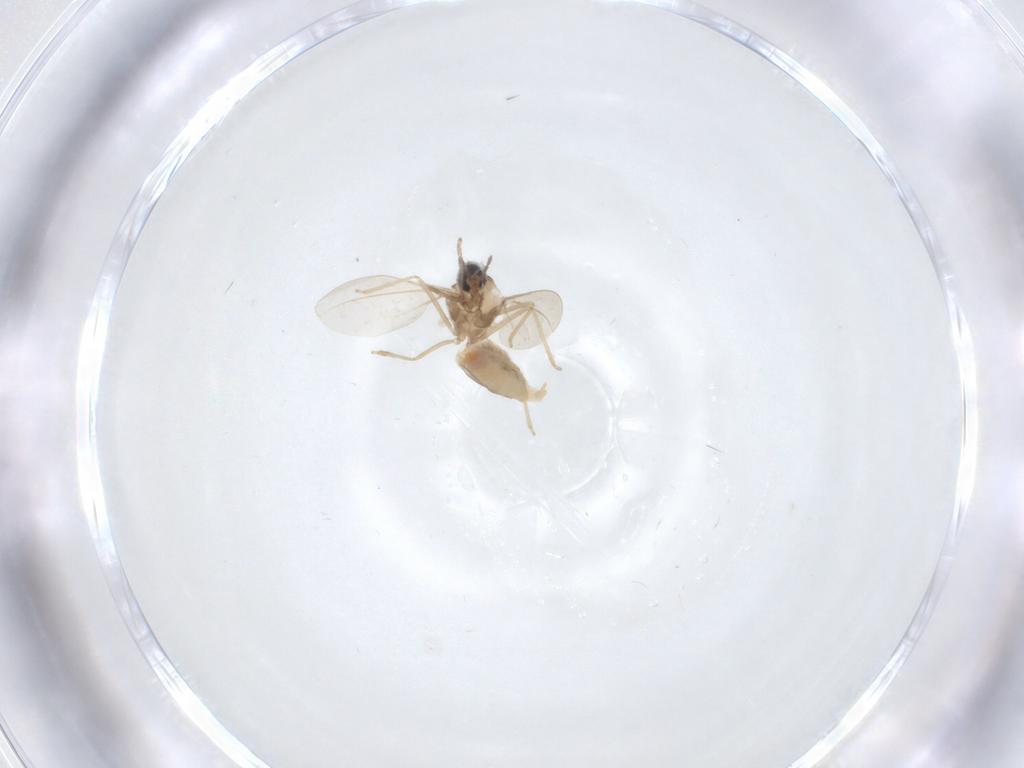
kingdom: Animalia
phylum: Arthropoda
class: Insecta
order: Diptera
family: Cecidomyiidae
